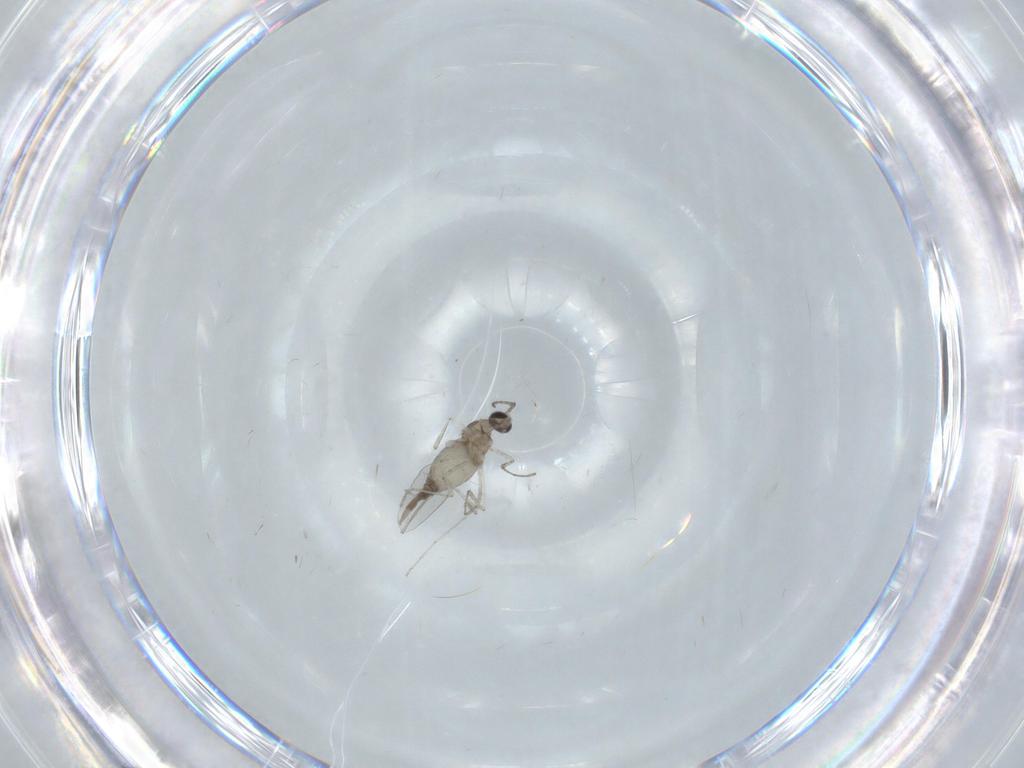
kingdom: Animalia
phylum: Arthropoda
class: Insecta
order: Diptera
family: Cecidomyiidae
